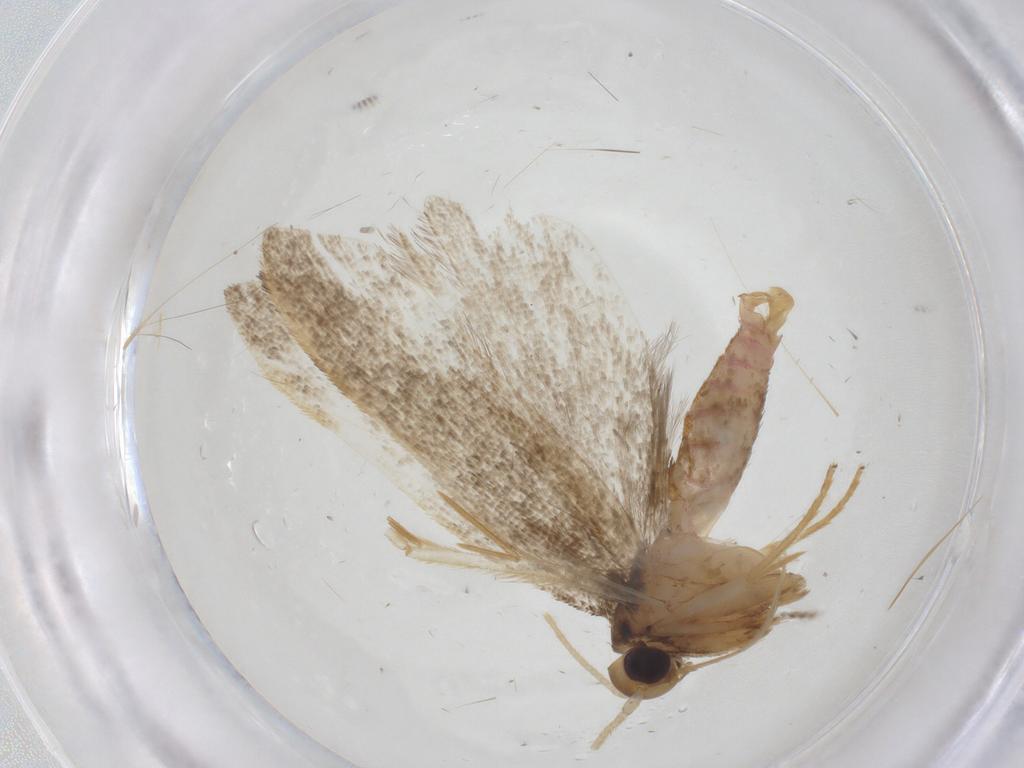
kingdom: Animalia
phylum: Arthropoda
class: Insecta
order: Lepidoptera
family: Oecophoridae
